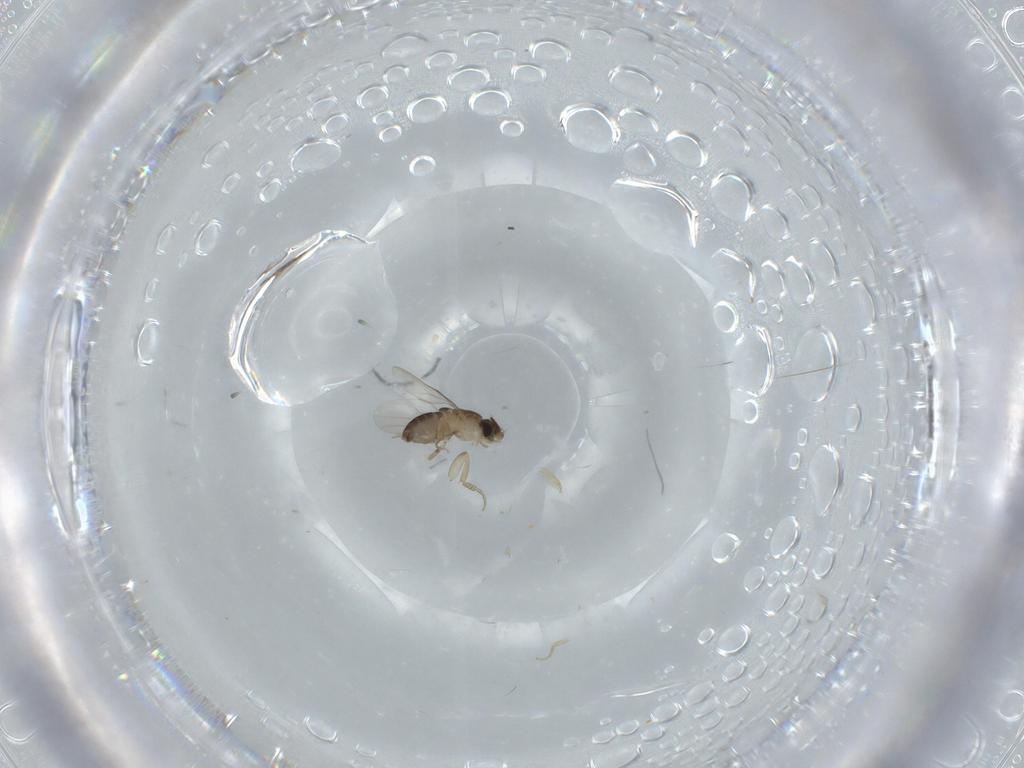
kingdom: Animalia
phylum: Arthropoda
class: Insecta
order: Diptera
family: Phoridae
